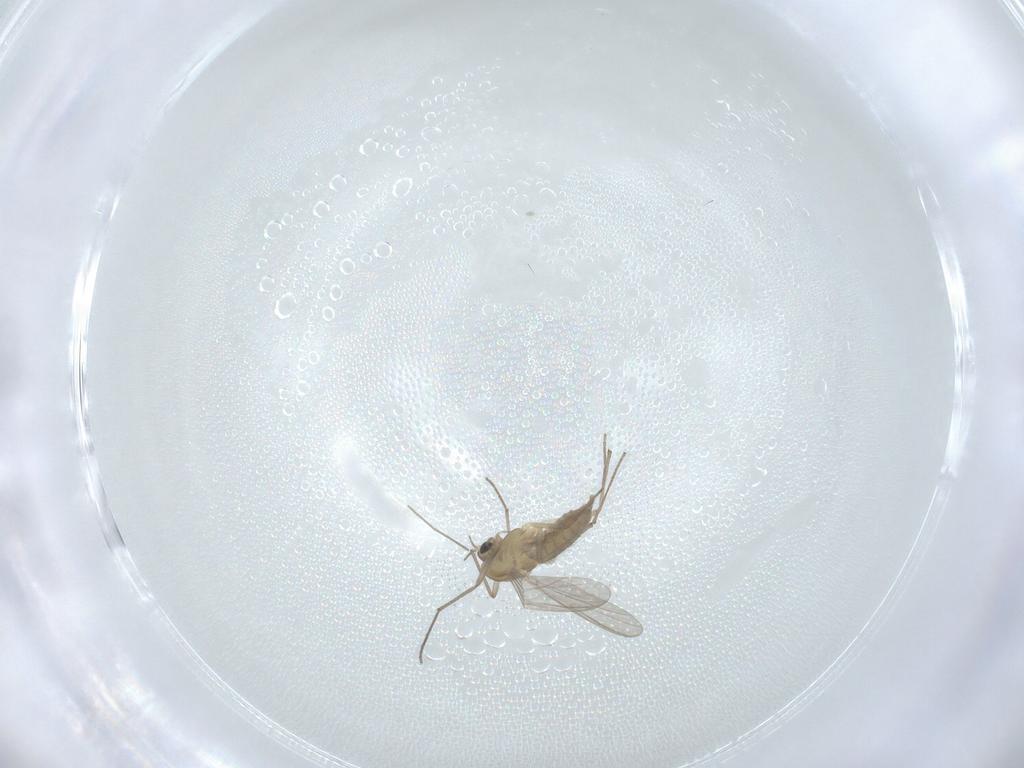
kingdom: Animalia
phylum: Arthropoda
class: Insecta
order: Diptera
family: Chironomidae
